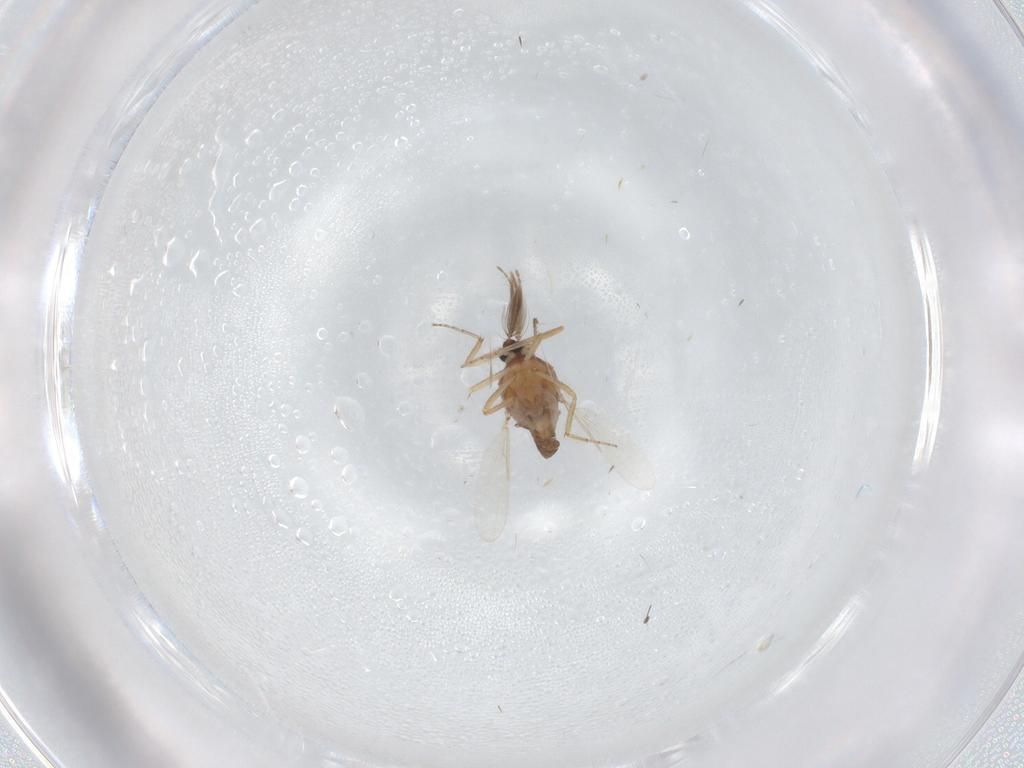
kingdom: Animalia
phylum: Arthropoda
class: Insecta
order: Diptera
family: Ceratopogonidae
